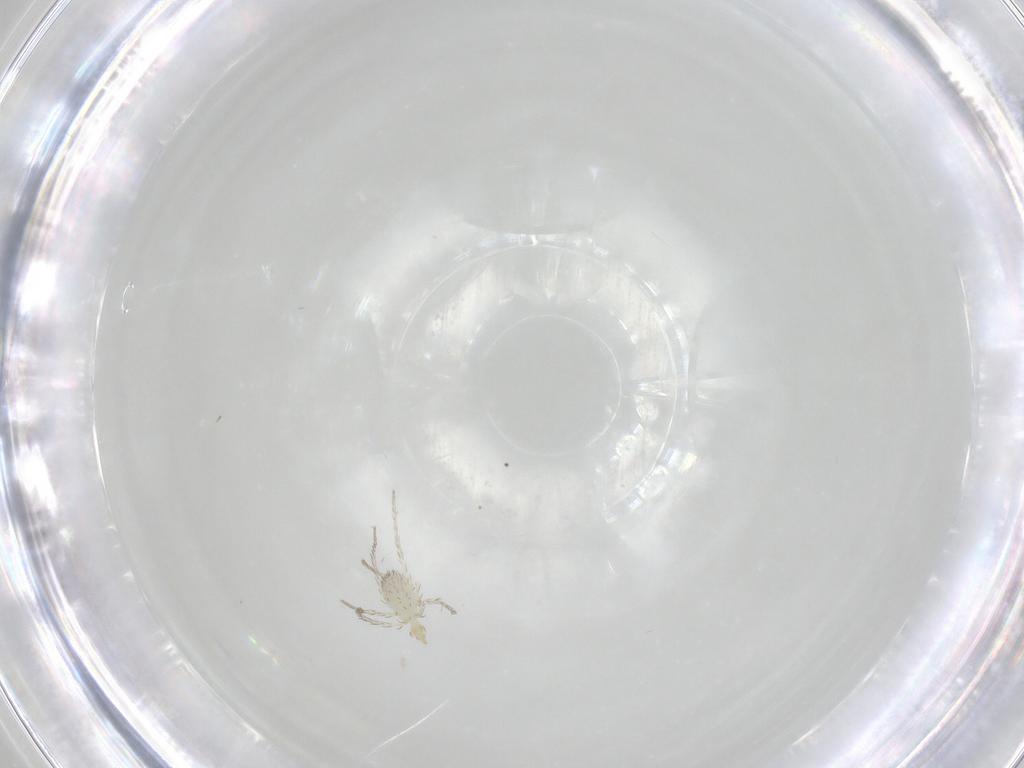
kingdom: Animalia
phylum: Arthropoda
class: Arachnida
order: Trombidiformes
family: Erythraeidae
